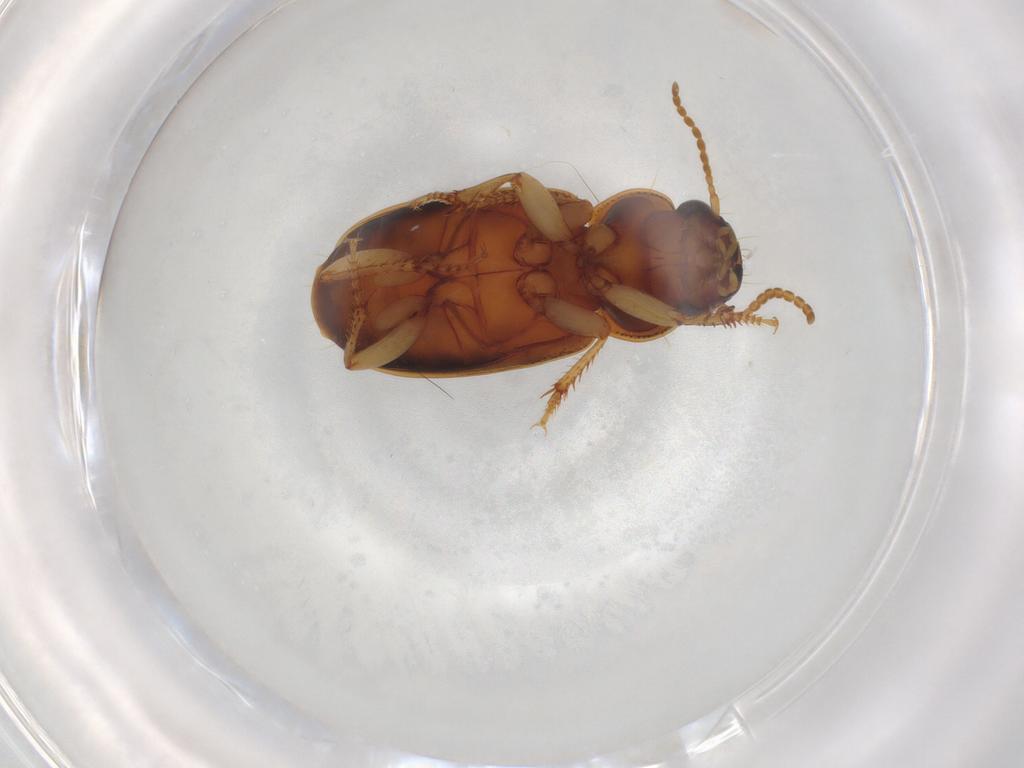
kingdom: Animalia
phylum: Arthropoda
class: Insecta
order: Coleoptera
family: Carabidae
